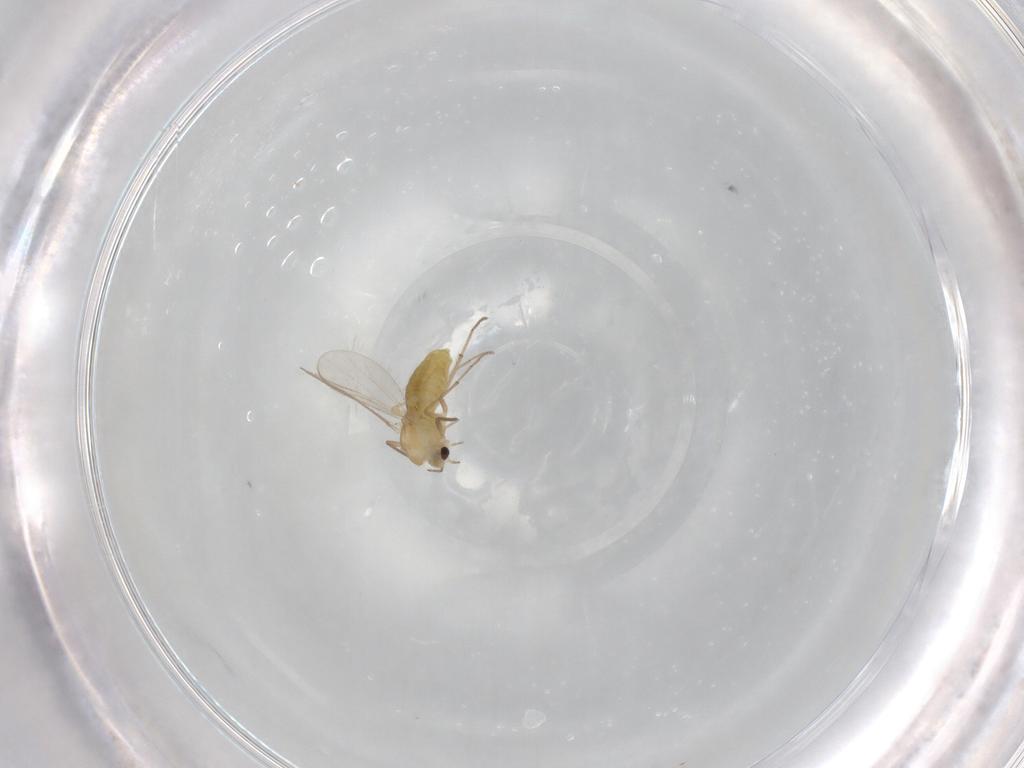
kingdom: Animalia
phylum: Arthropoda
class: Insecta
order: Diptera
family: Chironomidae
